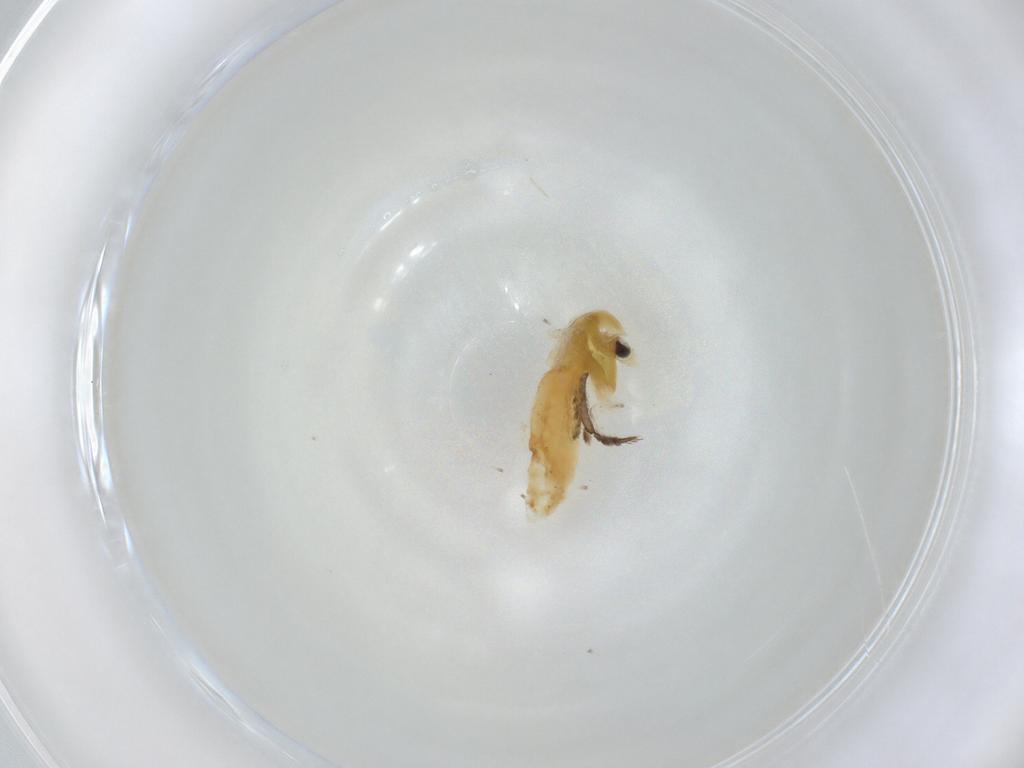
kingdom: Animalia
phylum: Arthropoda
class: Insecta
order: Diptera
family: Chironomidae
